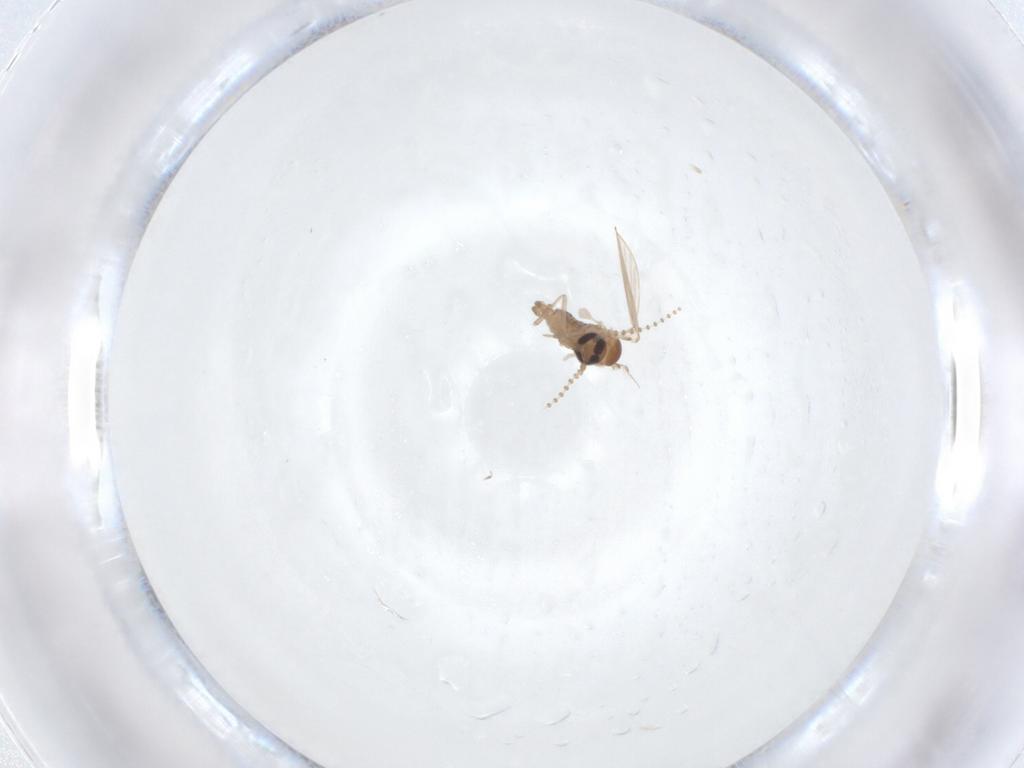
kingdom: Animalia
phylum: Arthropoda
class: Insecta
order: Diptera
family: Psychodidae
